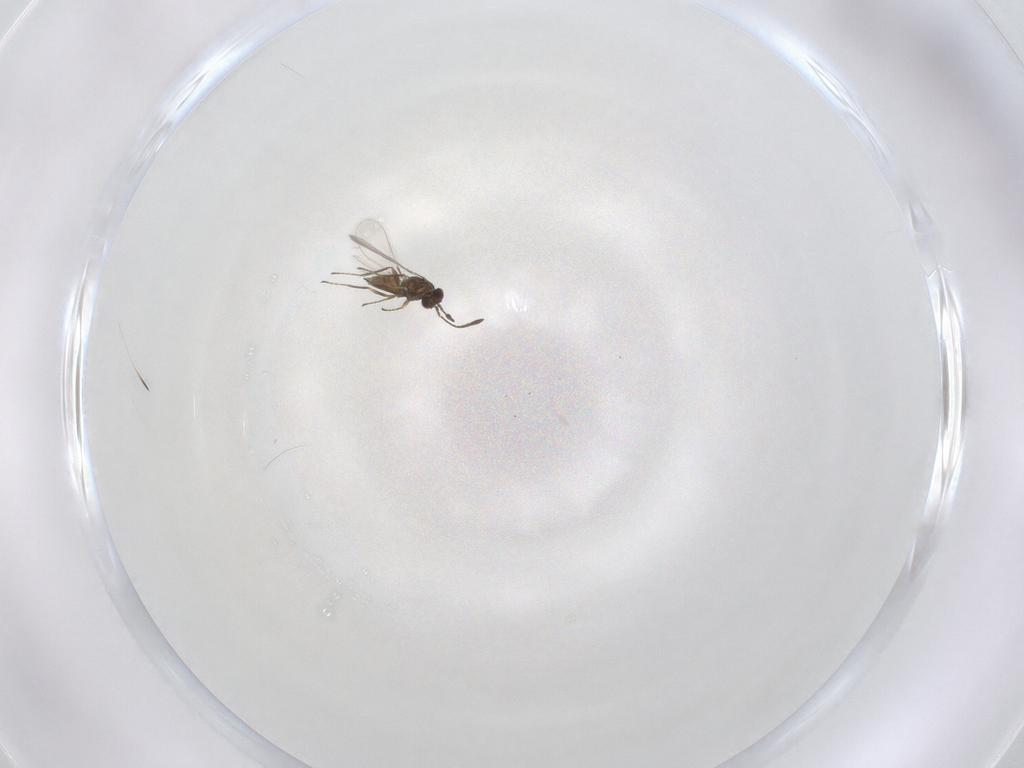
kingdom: Animalia
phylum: Arthropoda
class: Insecta
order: Hymenoptera
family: Mymaridae
